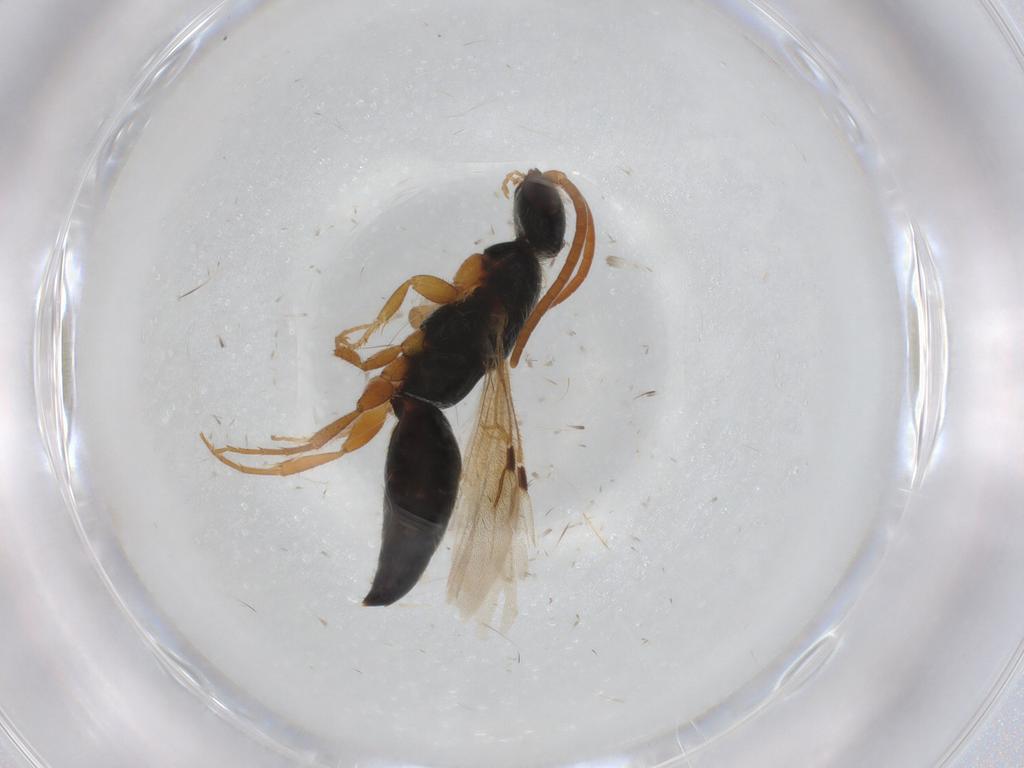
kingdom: Animalia
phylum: Arthropoda
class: Insecta
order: Hymenoptera
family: Bethylidae
